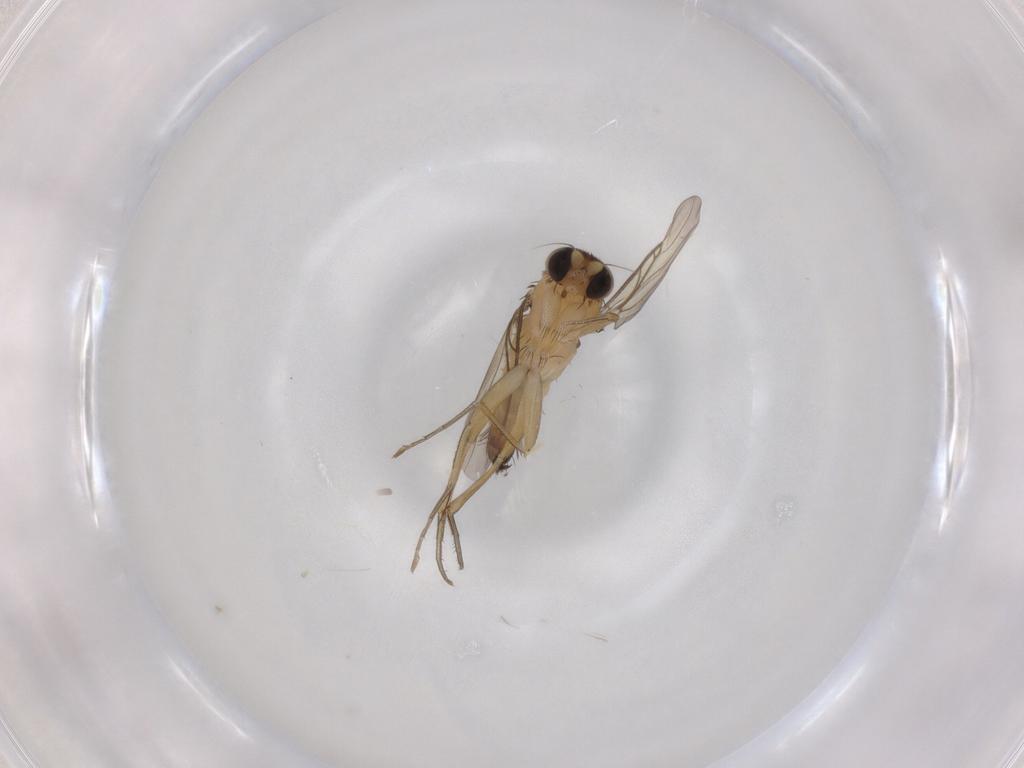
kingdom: Animalia
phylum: Arthropoda
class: Insecta
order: Diptera
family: Phoridae
